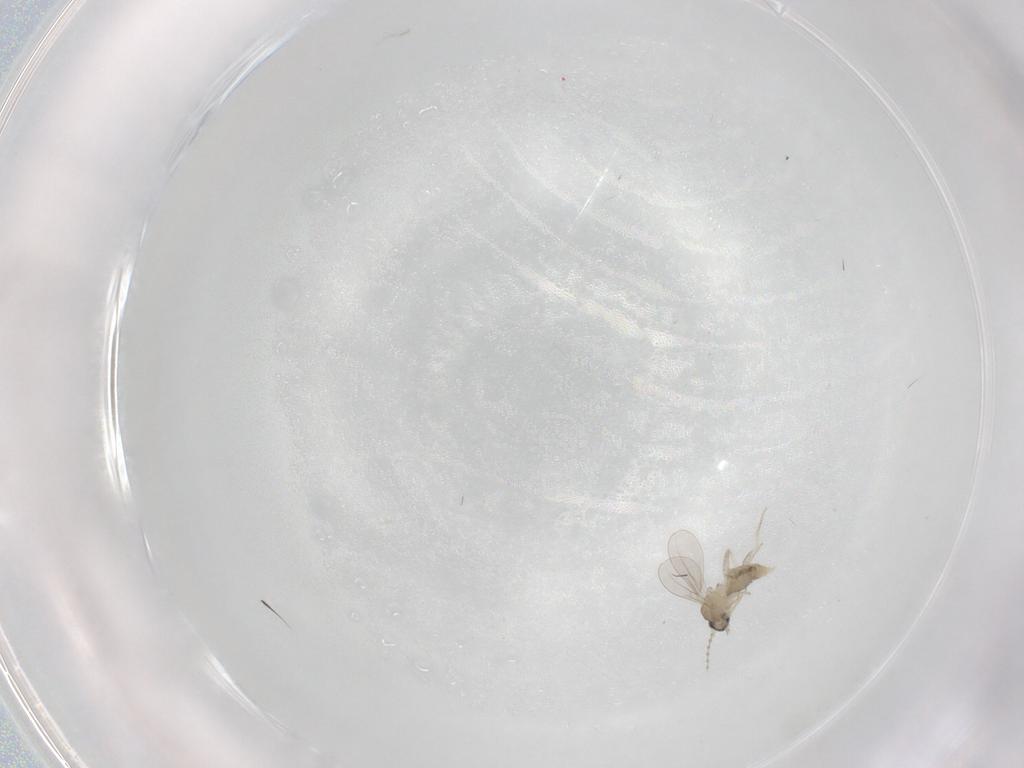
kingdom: Animalia
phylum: Arthropoda
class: Insecta
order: Diptera
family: Cecidomyiidae
